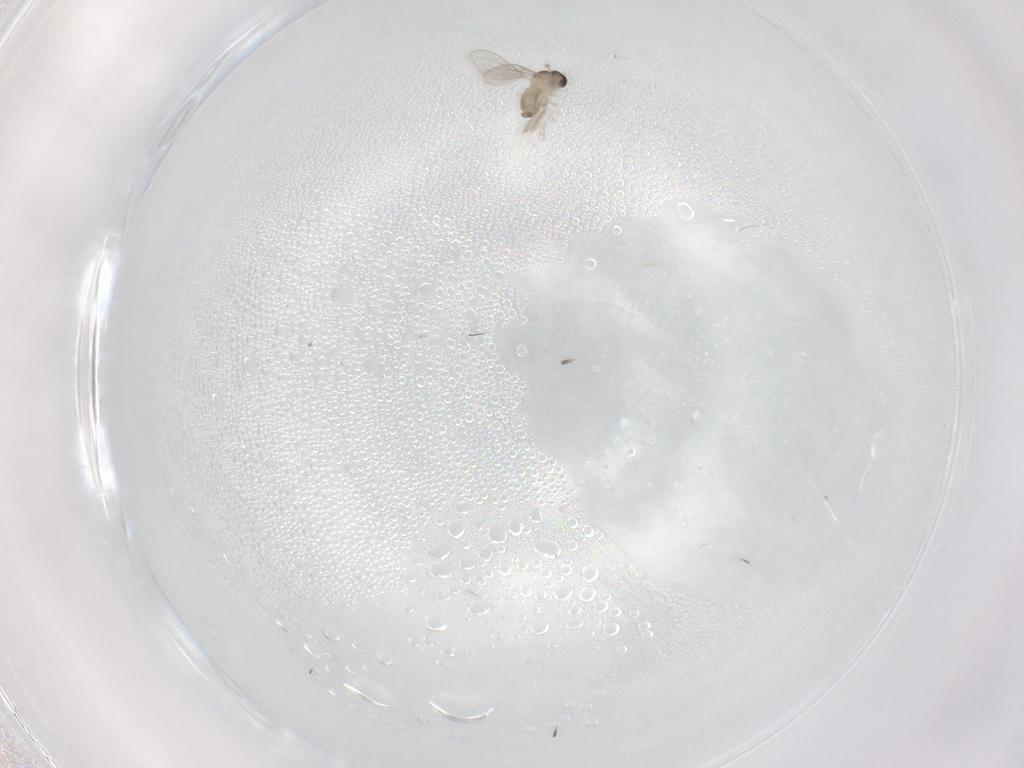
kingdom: Animalia
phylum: Arthropoda
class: Insecta
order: Diptera
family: Cecidomyiidae
